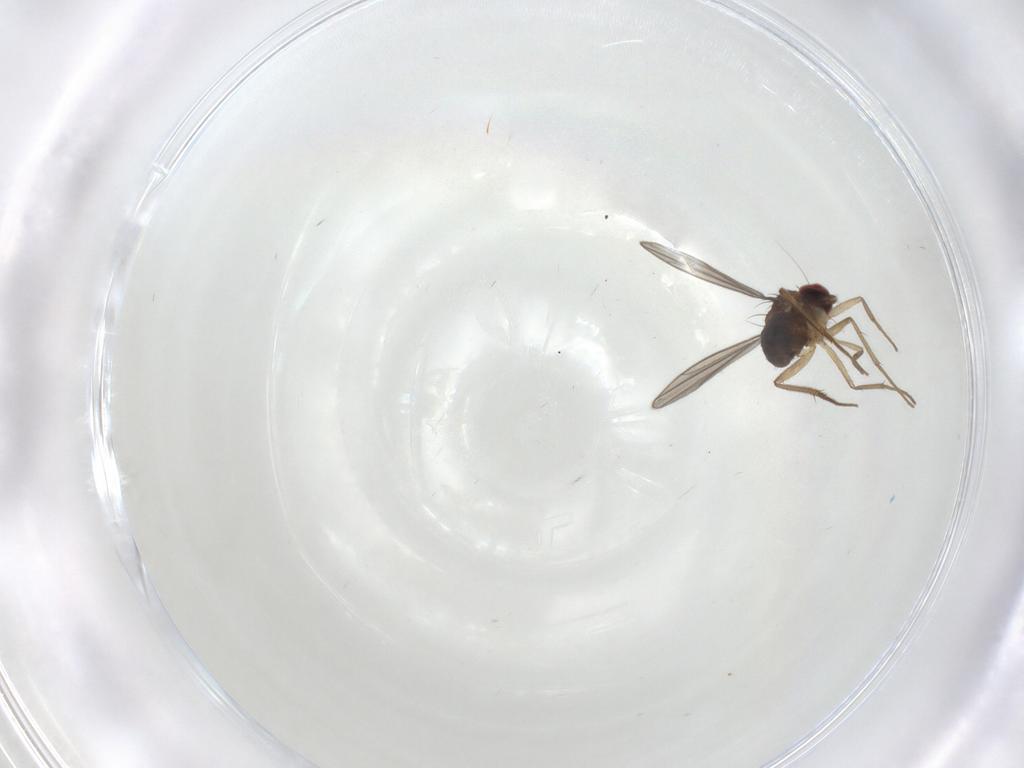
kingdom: Animalia
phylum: Arthropoda
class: Insecta
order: Diptera
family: Dolichopodidae
